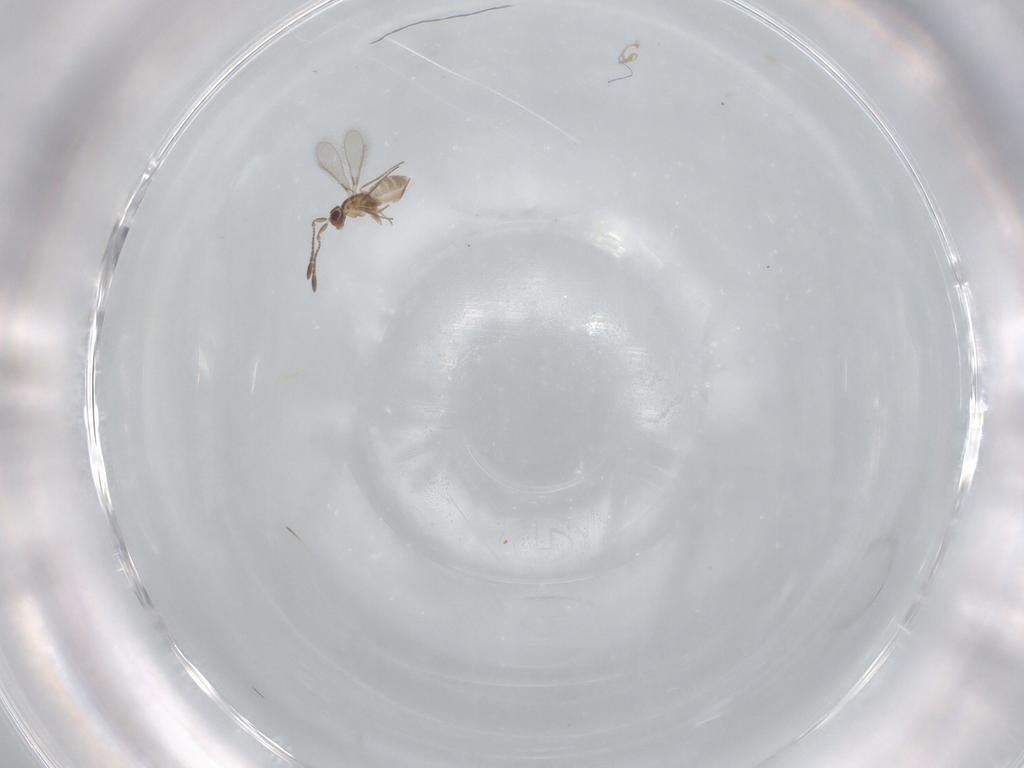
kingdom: Animalia
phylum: Arthropoda
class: Insecta
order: Hymenoptera
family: Mymaridae
